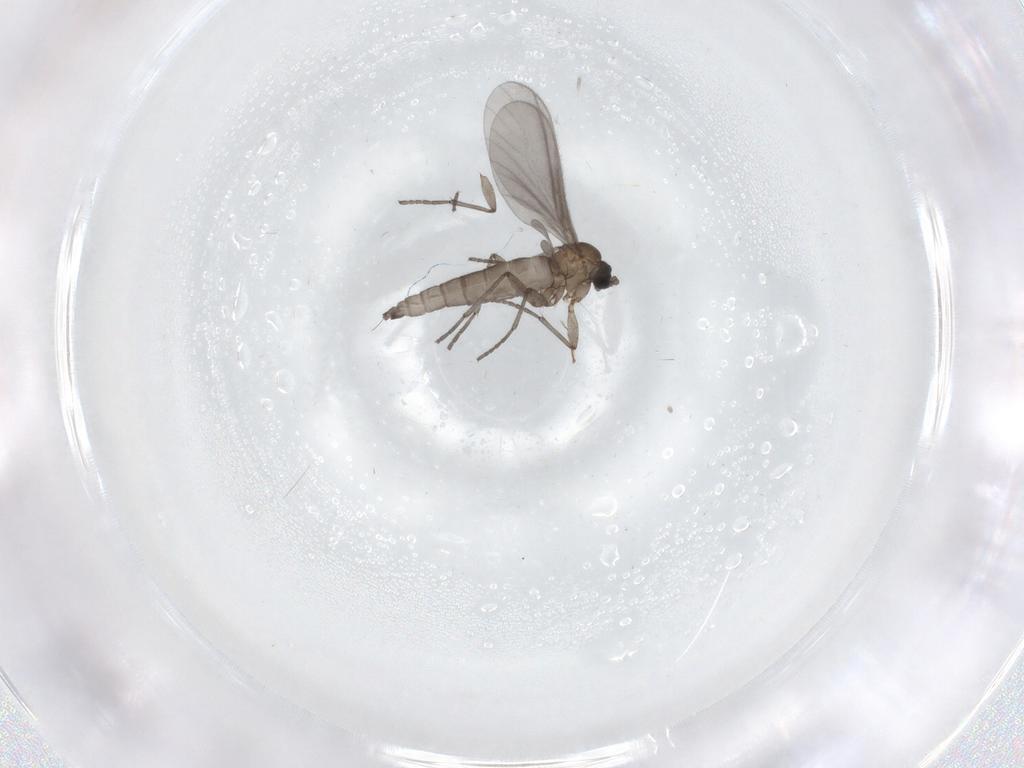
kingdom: Animalia
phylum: Arthropoda
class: Insecta
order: Diptera
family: Sciaridae
